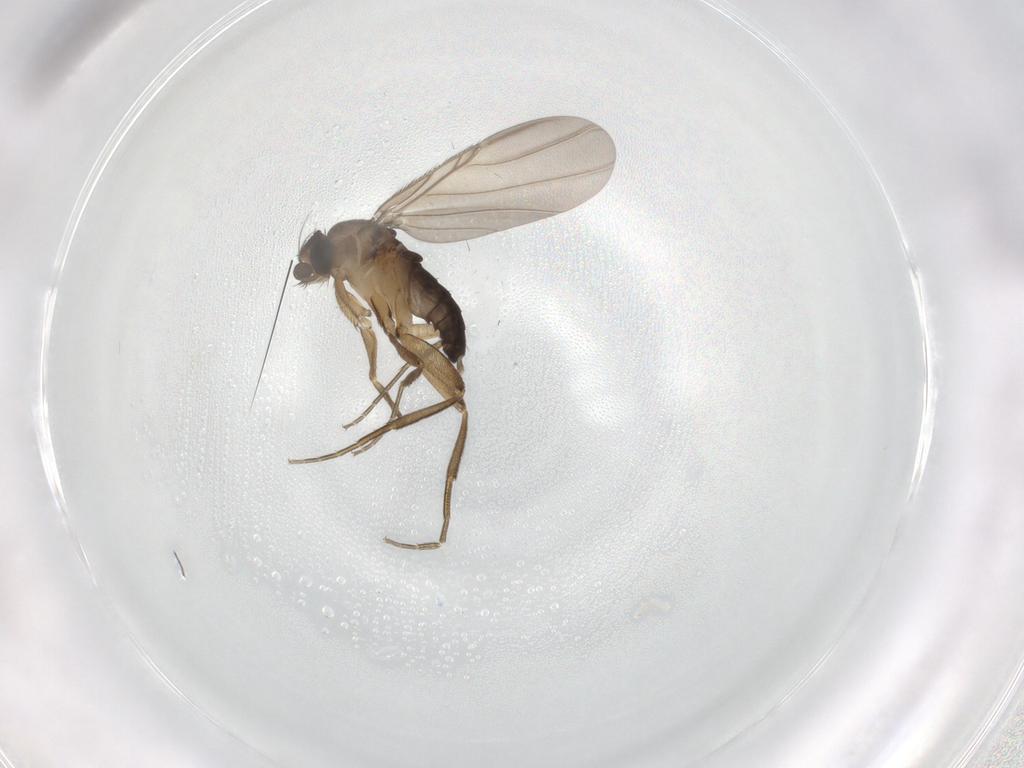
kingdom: Animalia
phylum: Arthropoda
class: Insecta
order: Diptera
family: Phoridae
